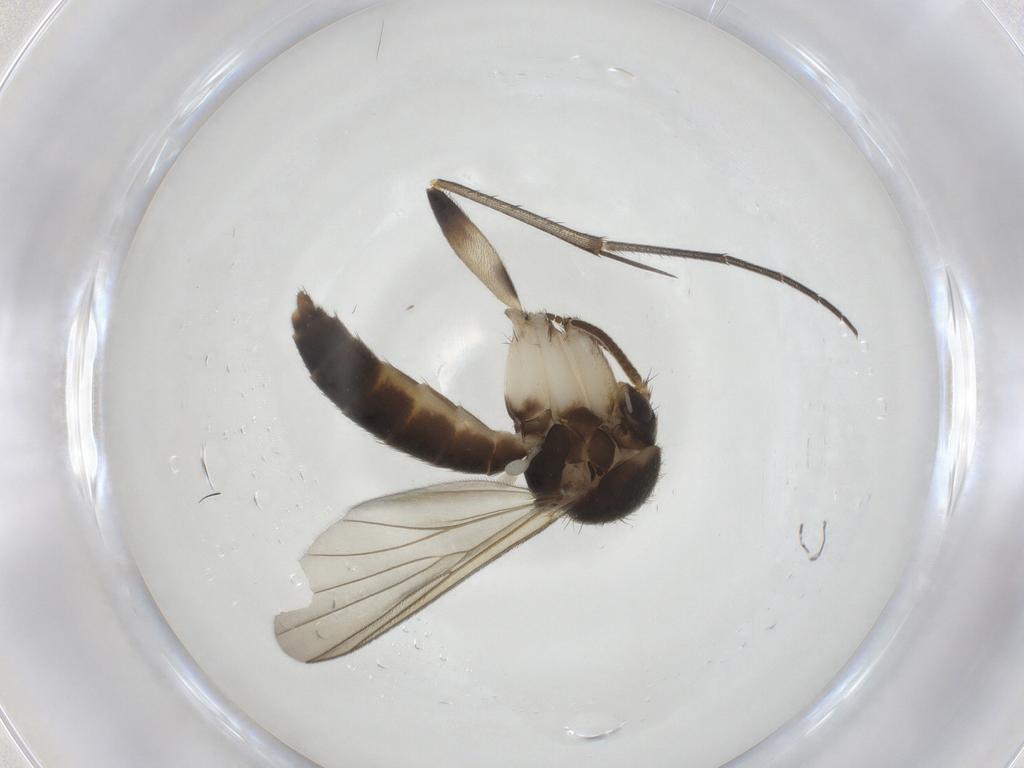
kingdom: Animalia
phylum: Arthropoda
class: Insecta
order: Diptera
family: Mycetophilidae
